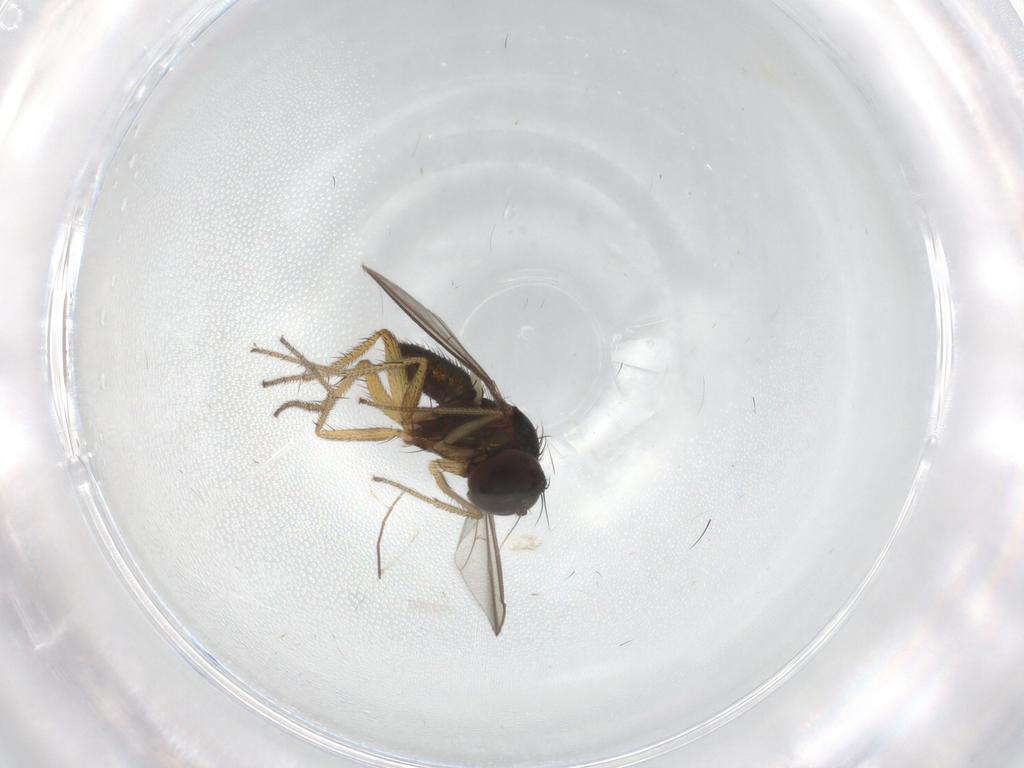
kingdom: Animalia
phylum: Arthropoda
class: Insecta
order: Diptera
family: Chironomidae
